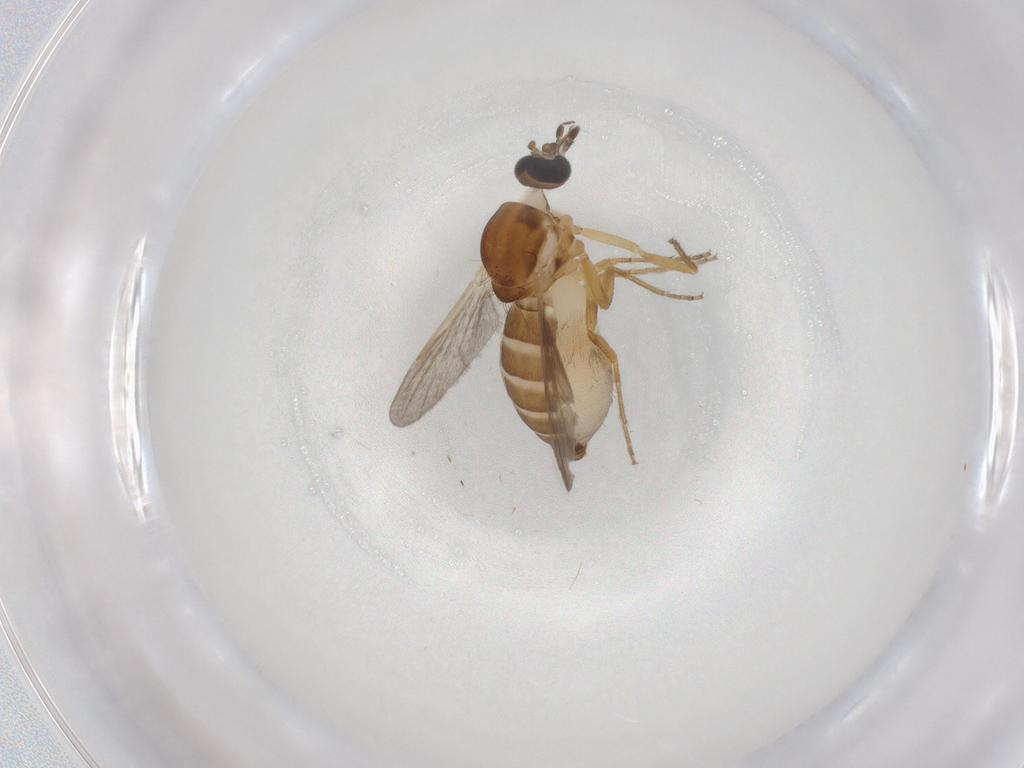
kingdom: Animalia
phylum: Arthropoda
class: Insecta
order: Diptera
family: Ceratopogonidae
